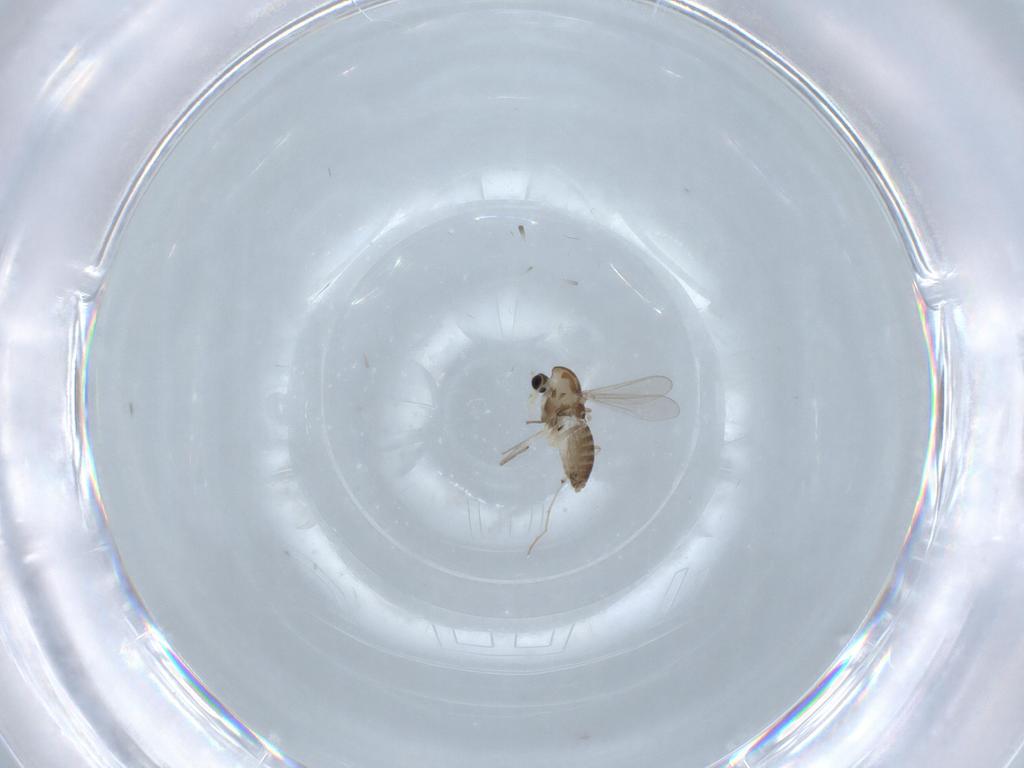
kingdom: Animalia
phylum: Arthropoda
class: Insecta
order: Diptera
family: Chironomidae
